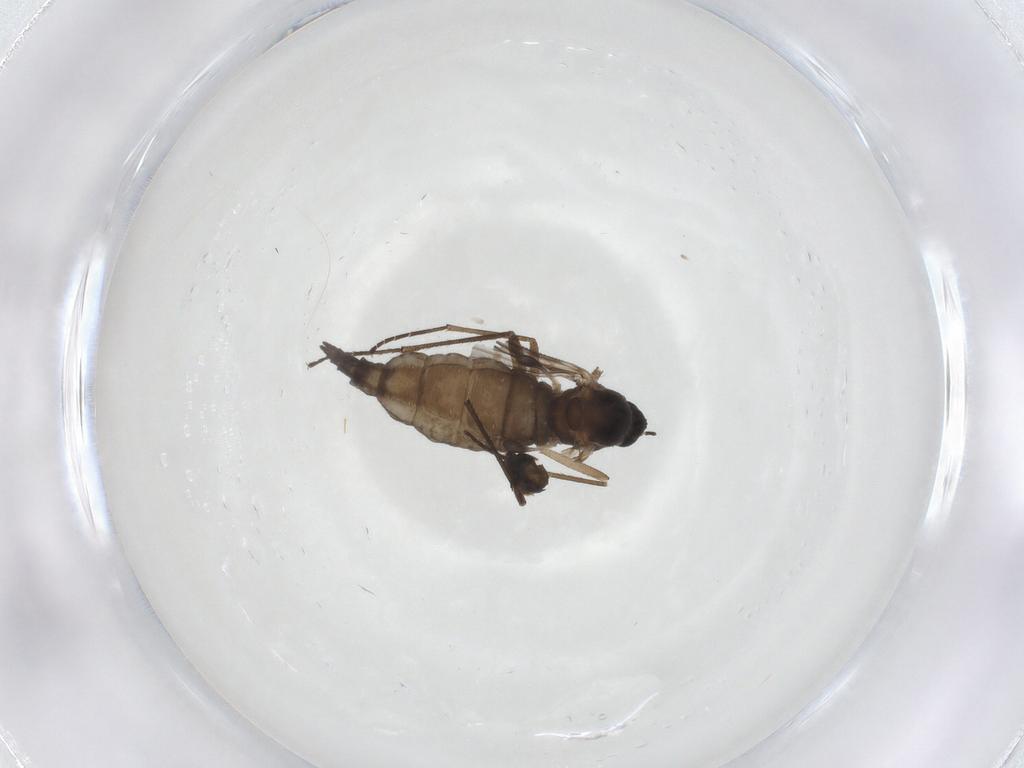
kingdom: Animalia
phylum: Arthropoda
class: Insecta
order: Diptera
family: Sciaridae
